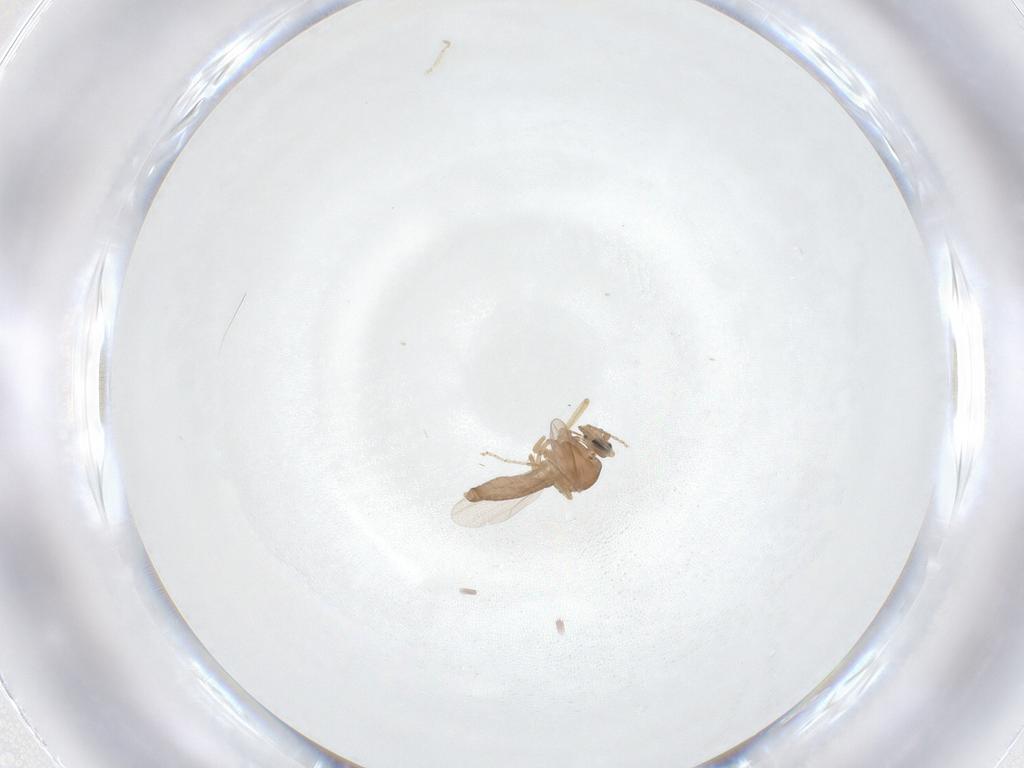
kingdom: Animalia
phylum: Arthropoda
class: Insecta
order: Diptera
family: Ceratopogonidae
